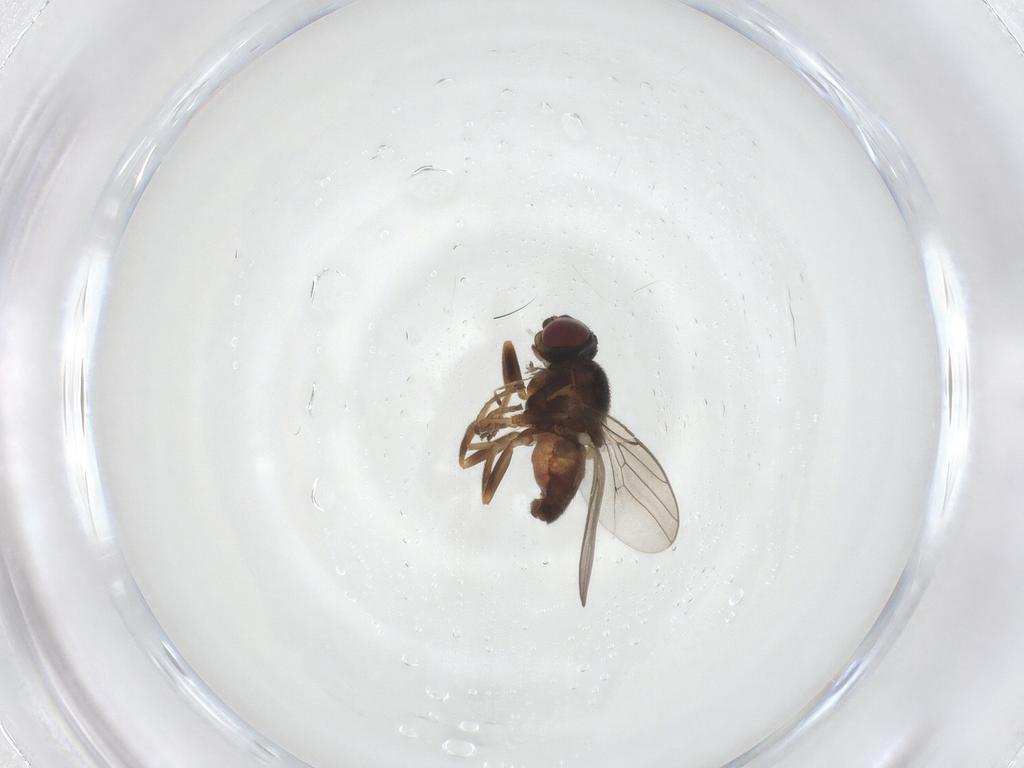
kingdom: Animalia
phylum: Arthropoda
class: Insecta
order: Diptera
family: Chloropidae
